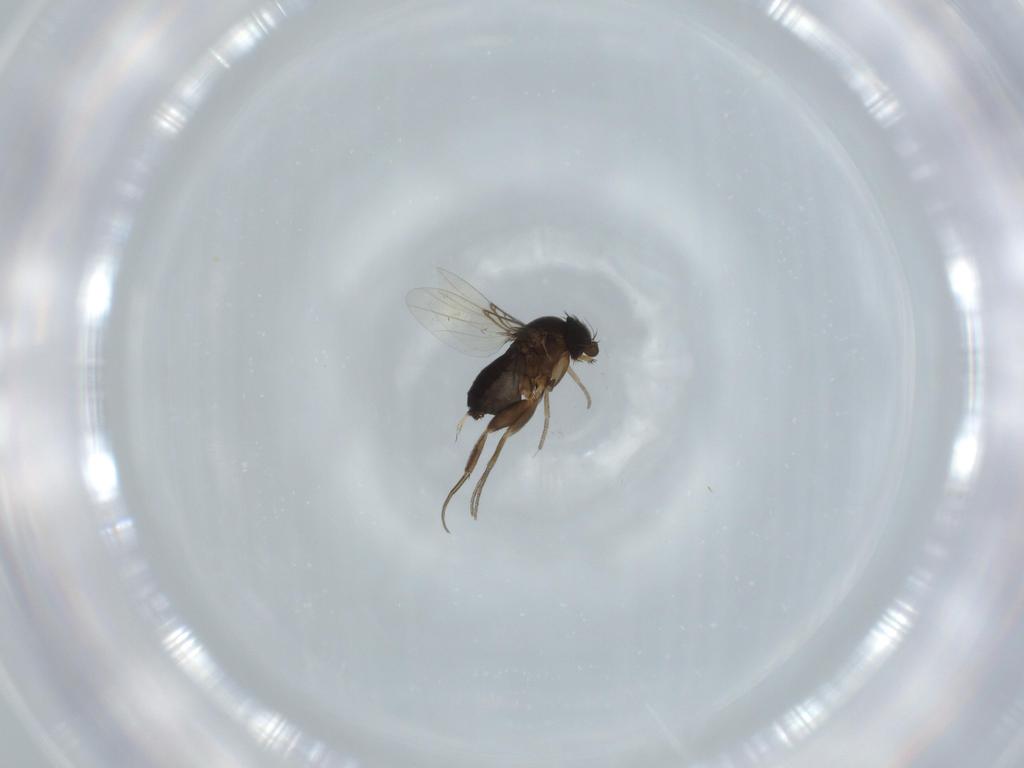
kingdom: Animalia
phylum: Arthropoda
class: Insecta
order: Diptera
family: Phoridae
